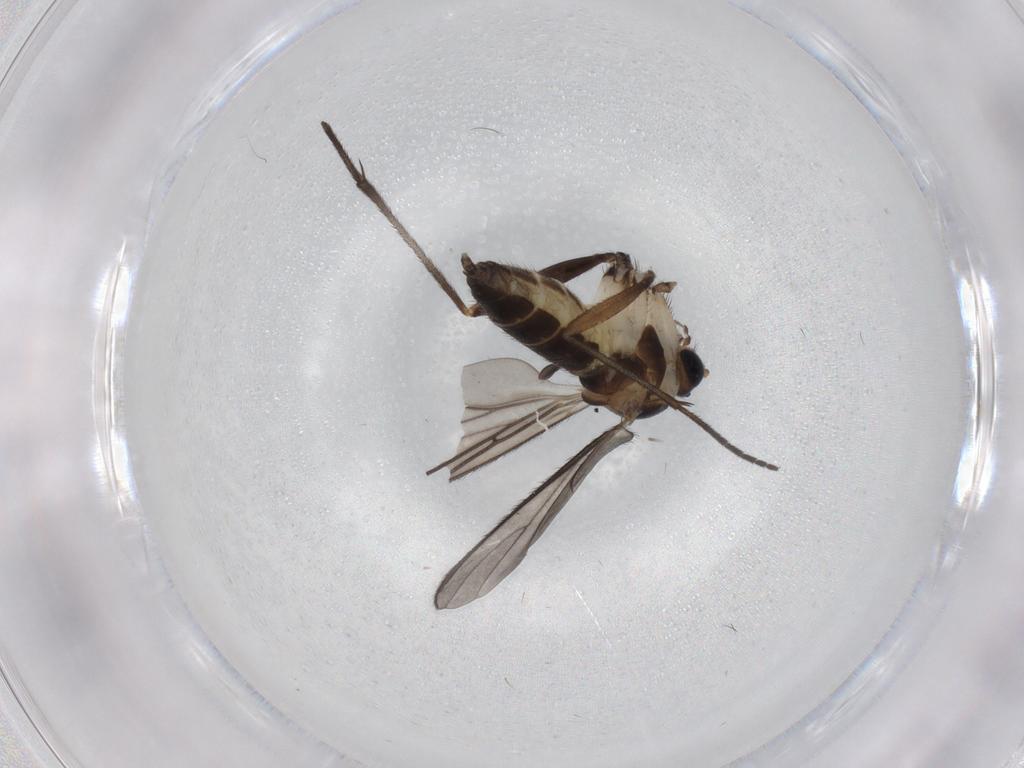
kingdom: Animalia
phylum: Arthropoda
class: Insecta
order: Diptera
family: Sciaridae
